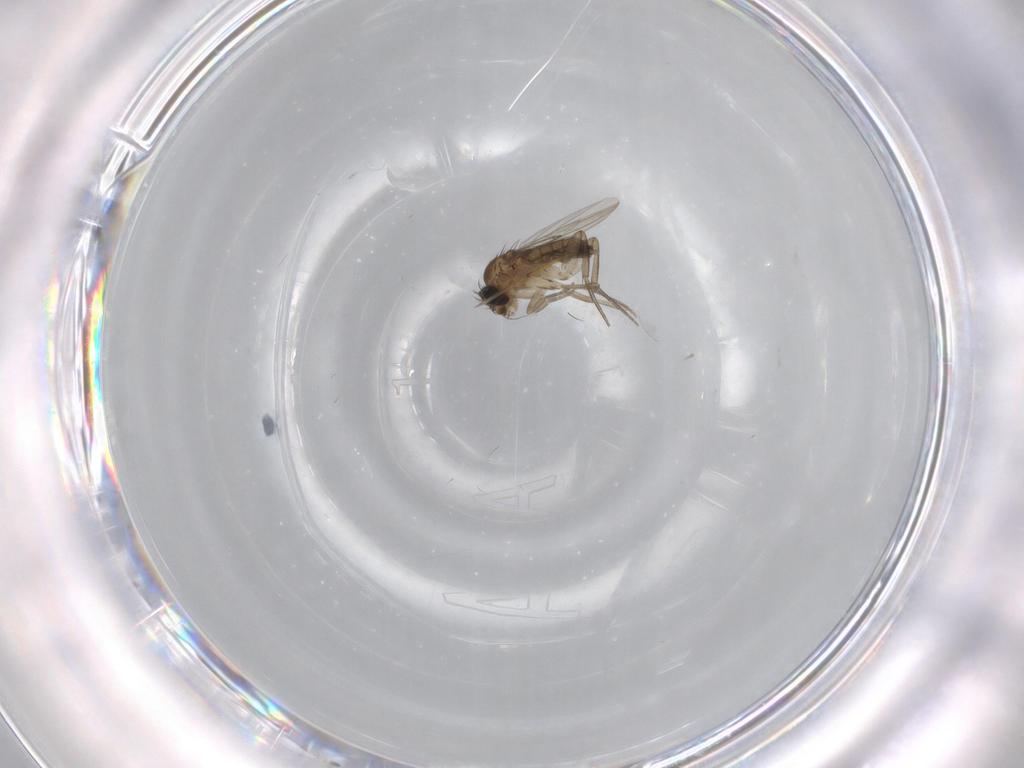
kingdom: Animalia
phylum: Arthropoda
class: Insecta
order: Diptera
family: Phoridae
